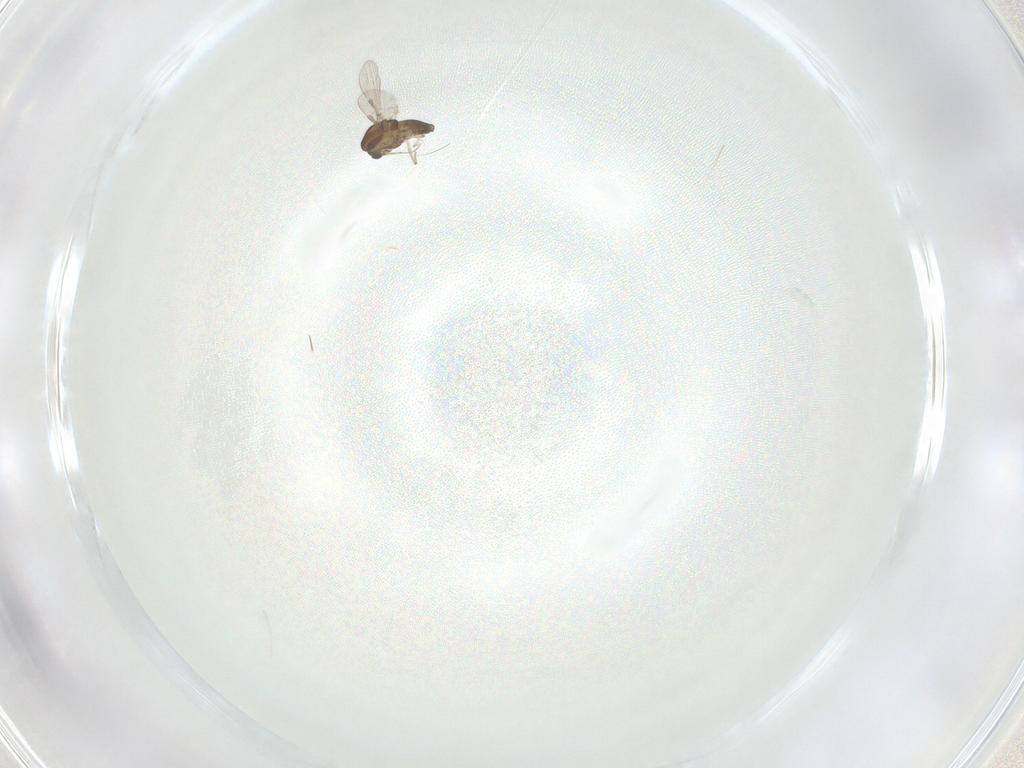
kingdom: Animalia
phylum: Arthropoda
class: Insecta
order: Diptera
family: Chironomidae
